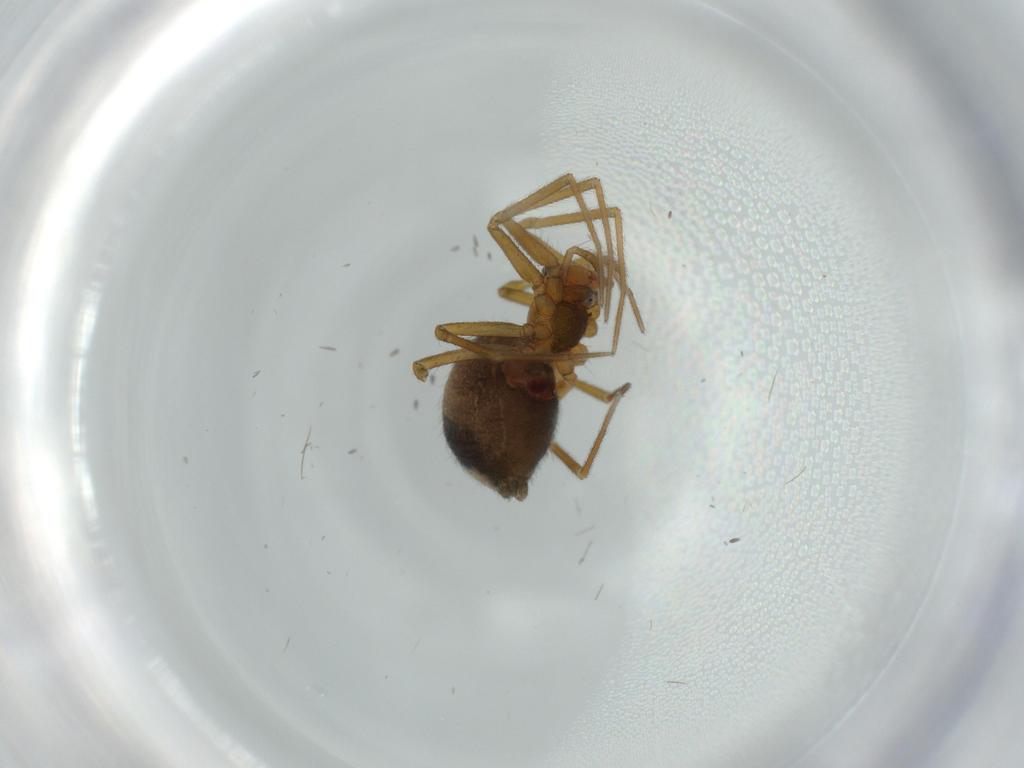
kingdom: Animalia
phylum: Arthropoda
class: Arachnida
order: Araneae
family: Linyphiidae
